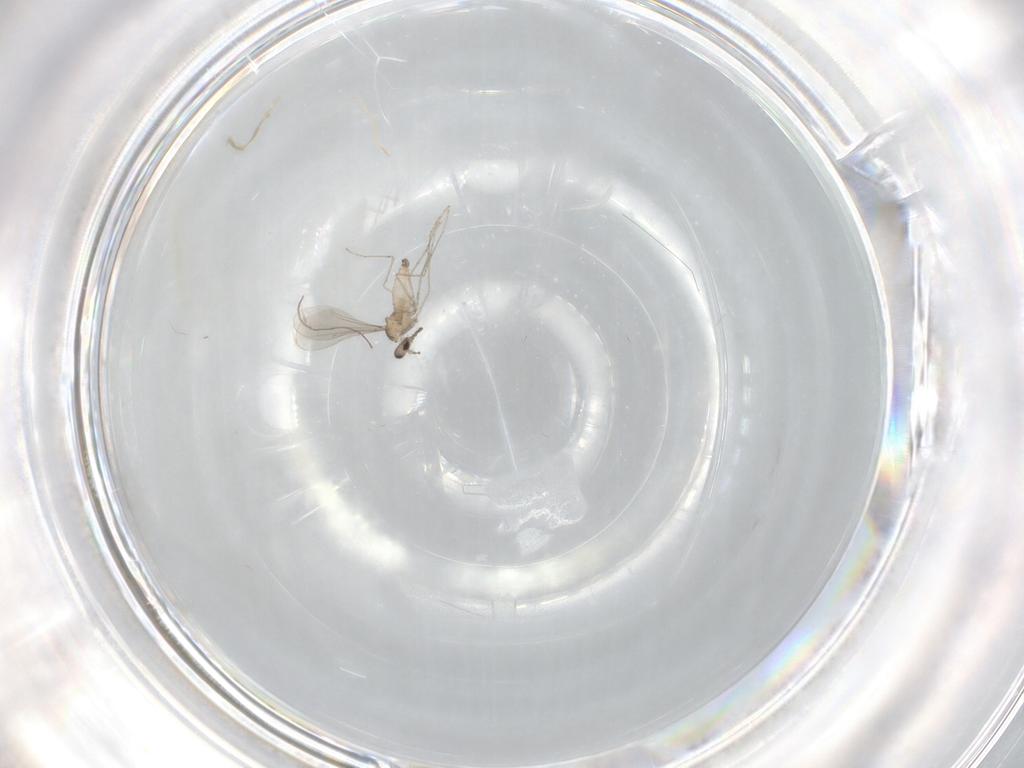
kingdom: Animalia
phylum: Arthropoda
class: Insecta
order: Diptera
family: Cecidomyiidae
